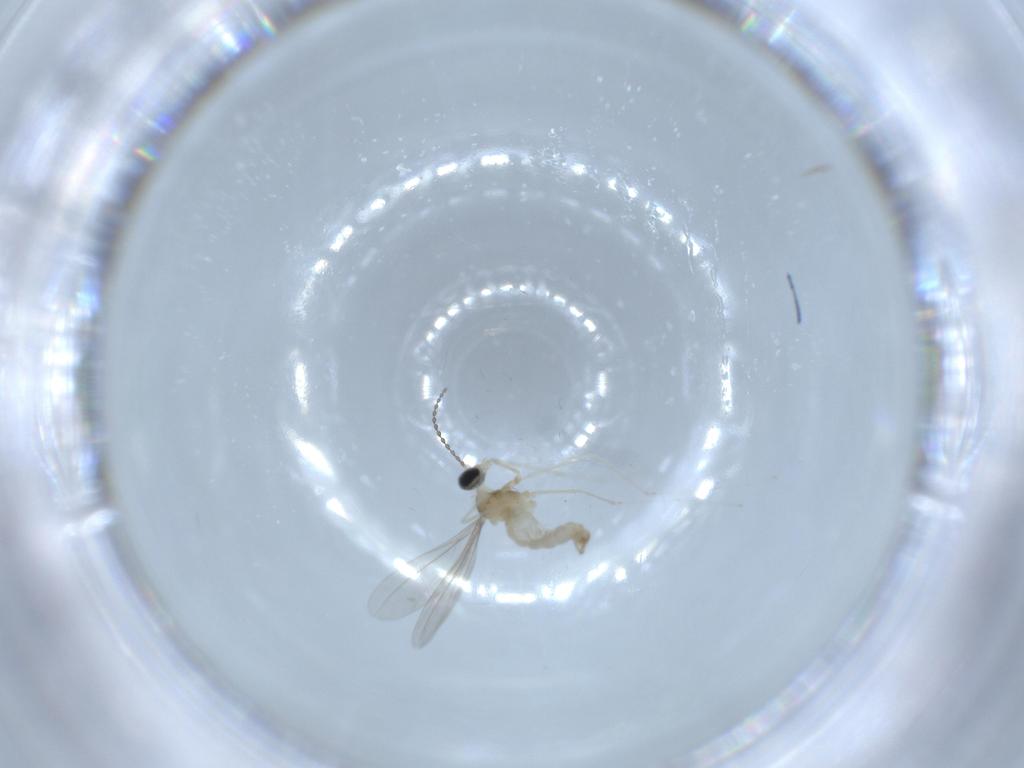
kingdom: Animalia
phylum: Arthropoda
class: Insecta
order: Diptera
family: Cecidomyiidae
